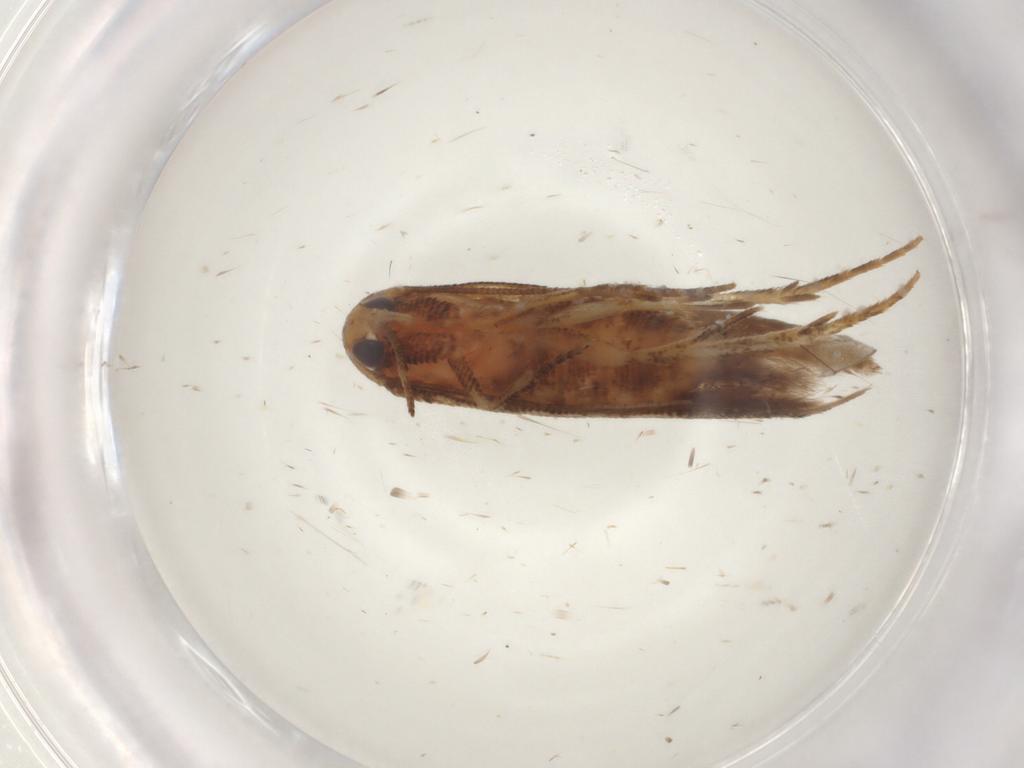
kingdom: Animalia
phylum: Arthropoda
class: Insecta
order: Lepidoptera
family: Cosmopterigidae
